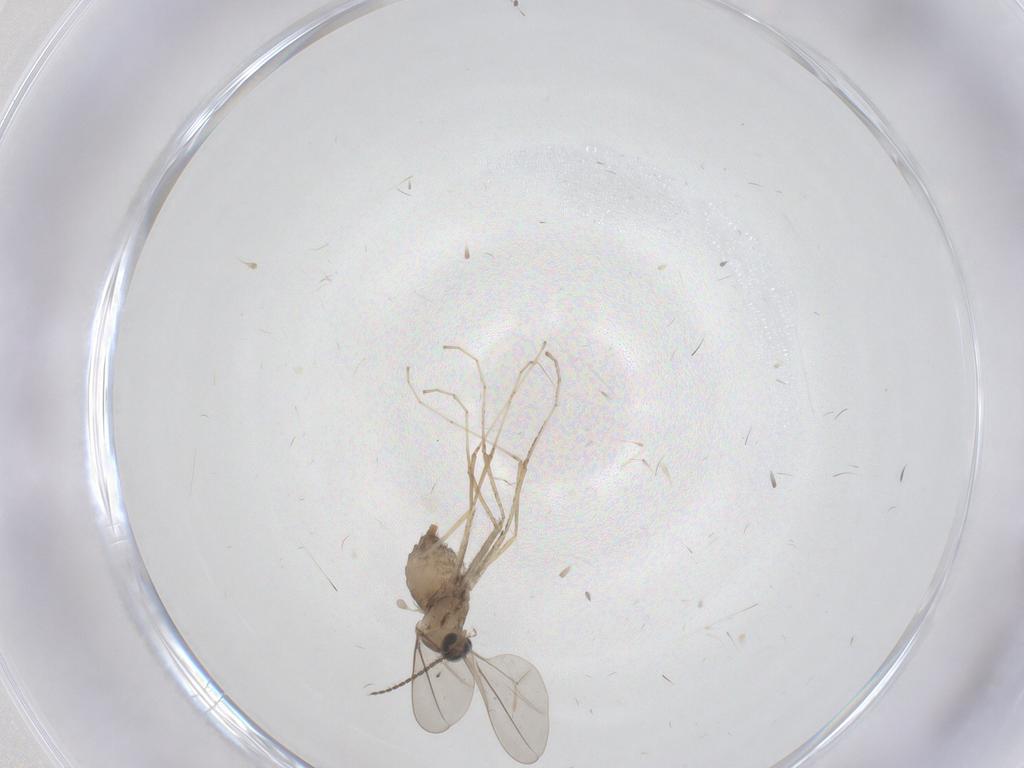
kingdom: Animalia
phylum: Arthropoda
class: Insecta
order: Diptera
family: Cecidomyiidae
